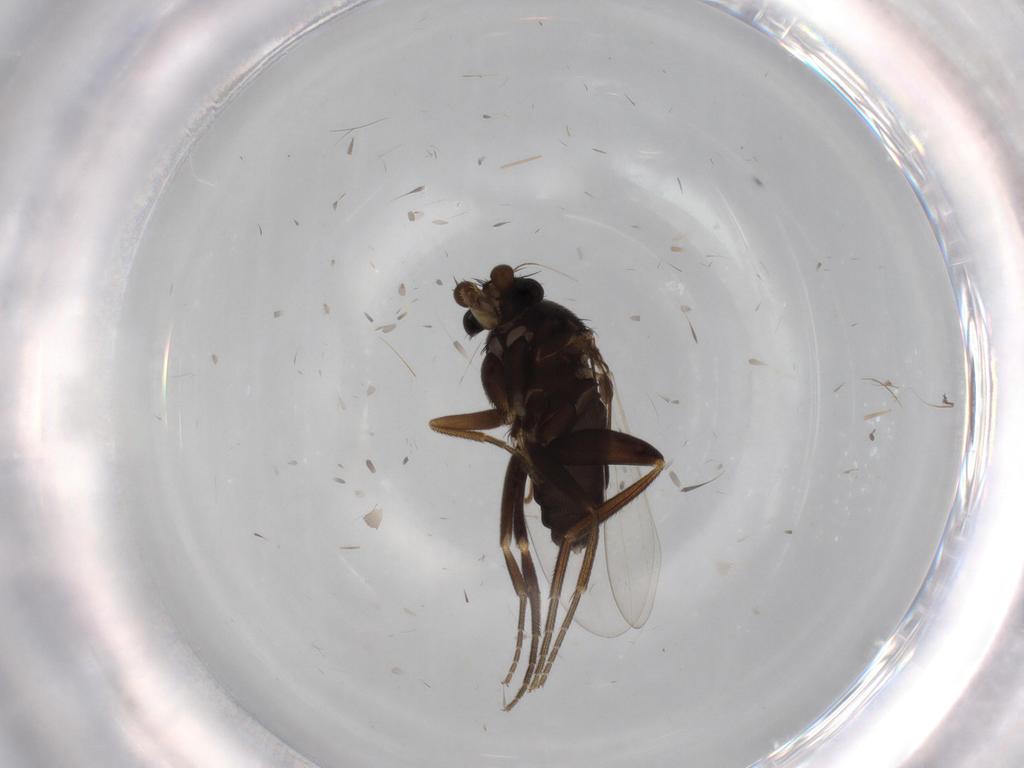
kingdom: Animalia
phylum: Arthropoda
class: Insecta
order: Diptera
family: Phoridae
